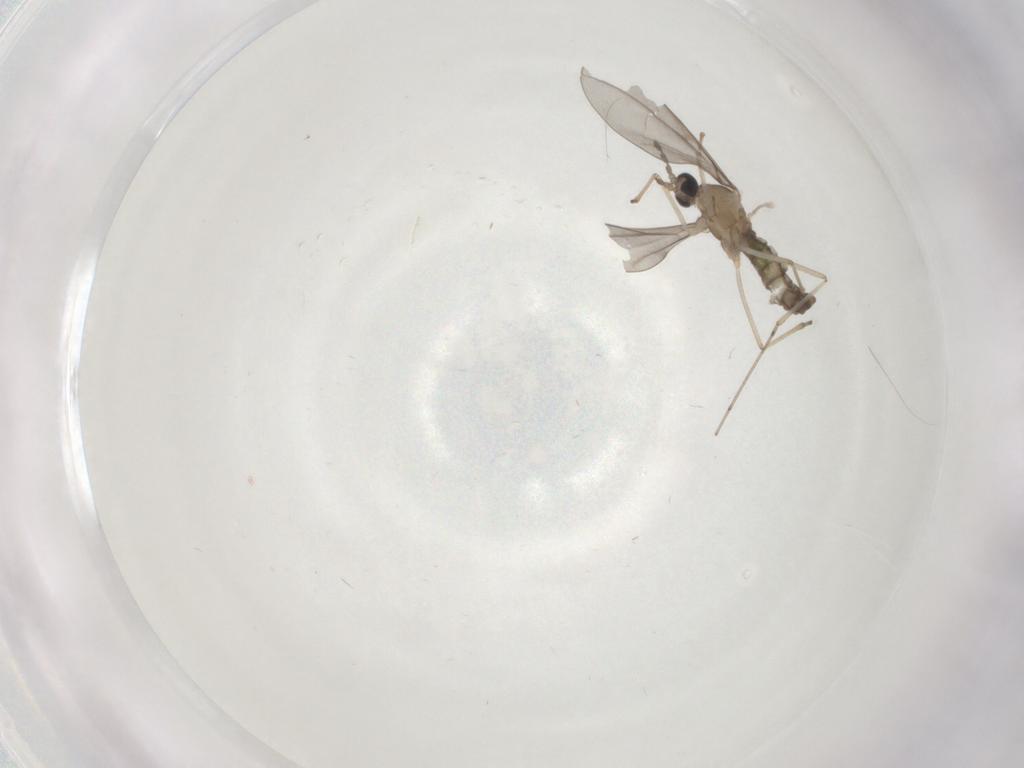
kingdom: Animalia
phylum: Arthropoda
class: Insecta
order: Diptera
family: Cecidomyiidae
